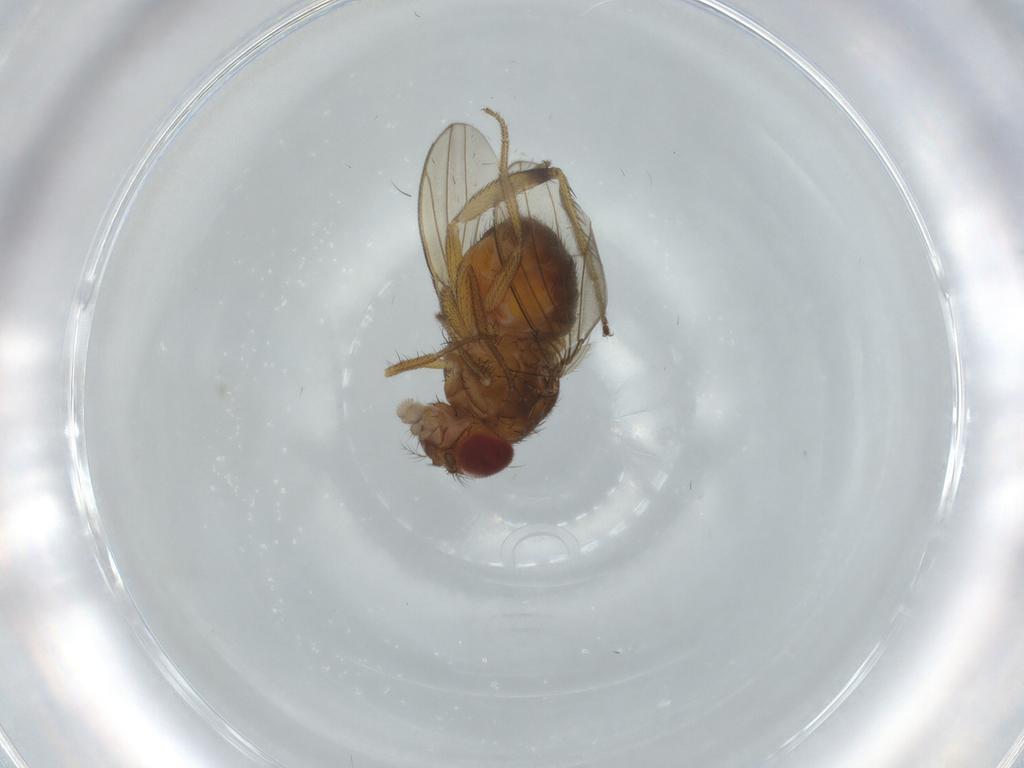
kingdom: Animalia
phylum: Arthropoda
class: Insecta
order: Diptera
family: Drosophilidae
